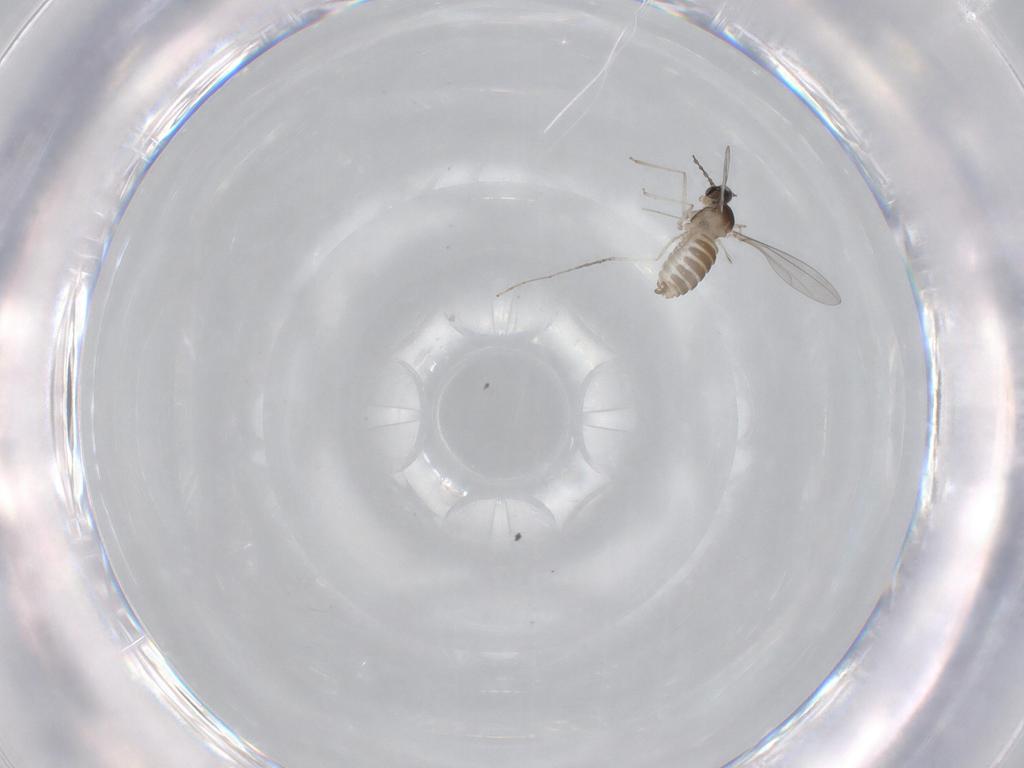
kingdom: Animalia
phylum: Arthropoda
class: Insecta
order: Diptera
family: Cecidomyiidae
